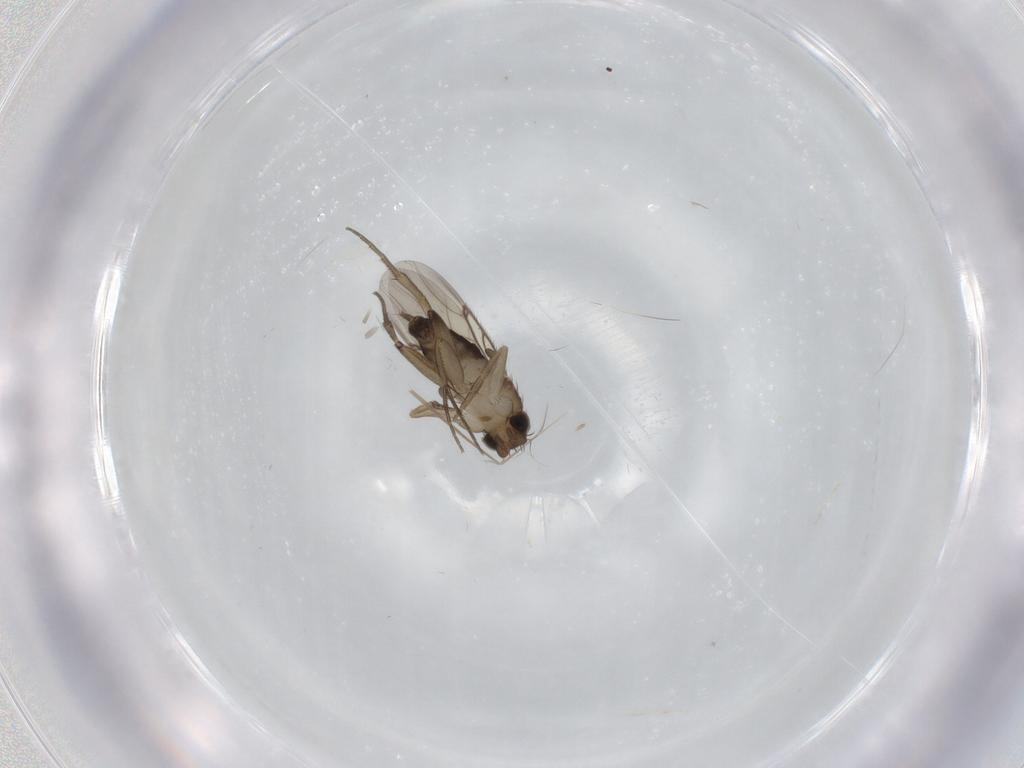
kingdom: Animalia
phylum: Arthropoda
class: Insecta
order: Diptera
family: Phoridae
